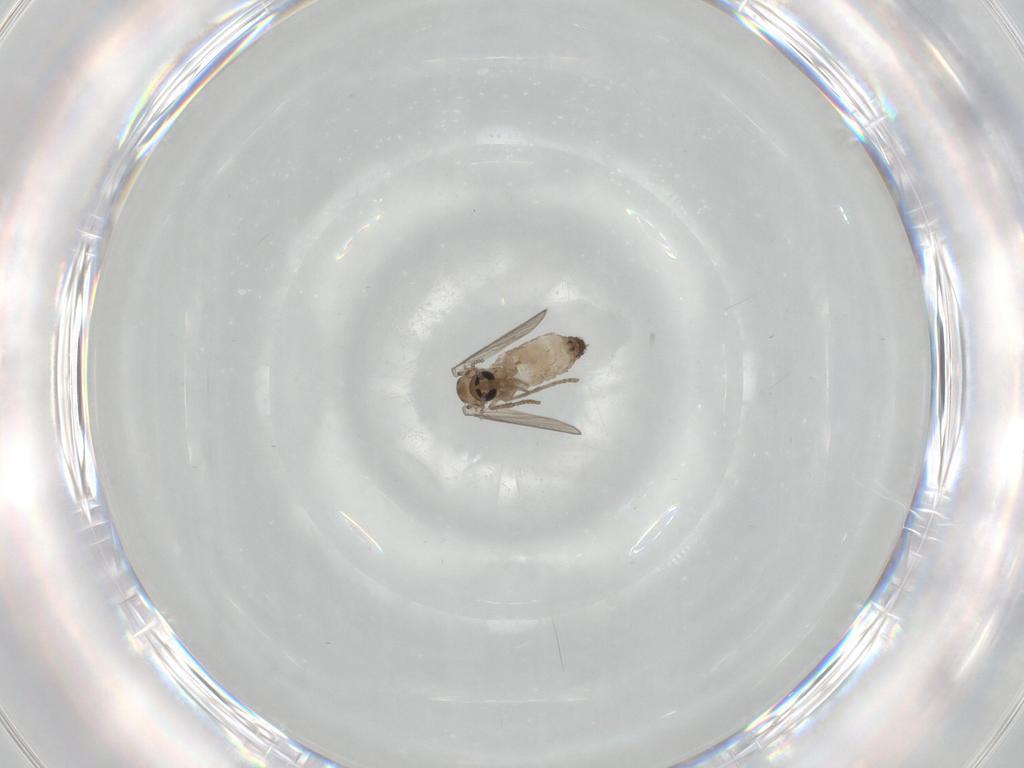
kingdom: Animalia
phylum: Arthropoda
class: Insecta
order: Diptera
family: Psychodidae
